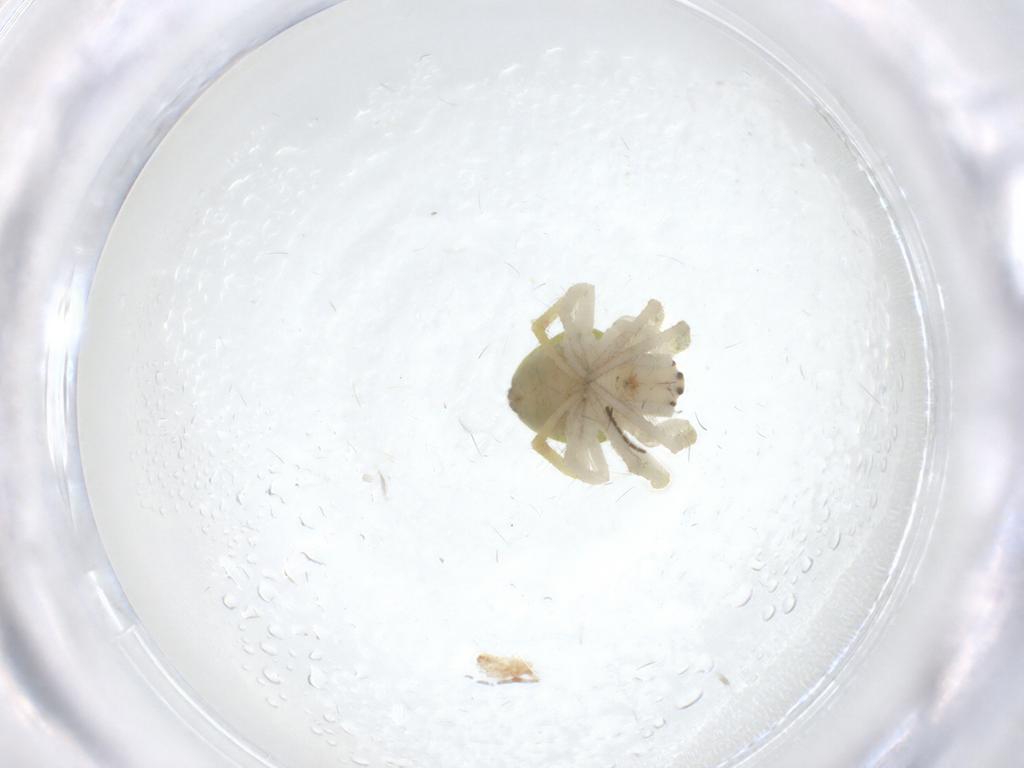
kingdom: Animalia
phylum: Arthropoda
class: Arachnida
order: Araneae
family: Araneidae
